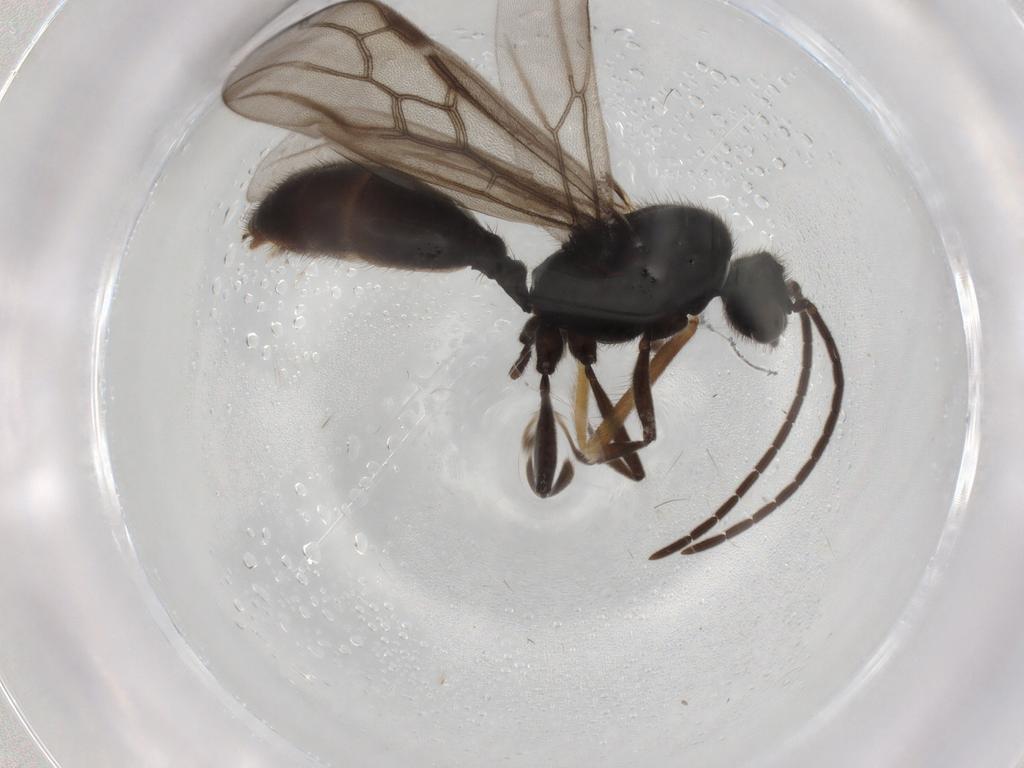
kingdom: Animalia
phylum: Arthropoda
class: Insecta
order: Hymenoptera
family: Formicidae
